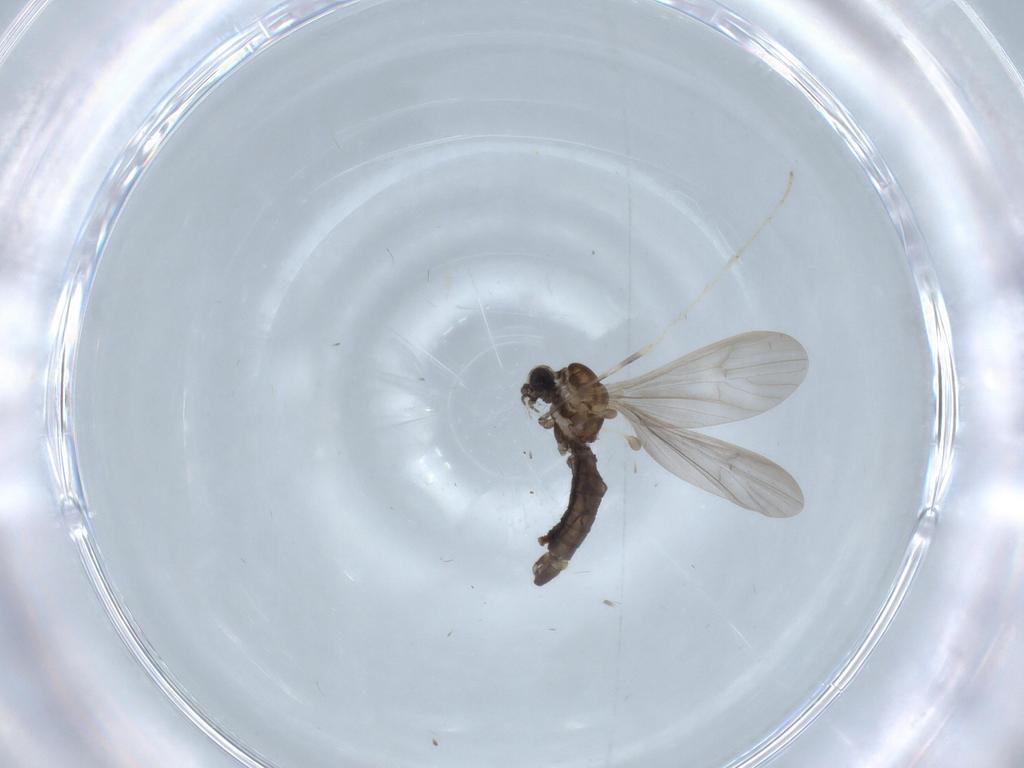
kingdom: Animalia
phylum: Arthropoda
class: Insecta
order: Diptera
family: Limoniidae
